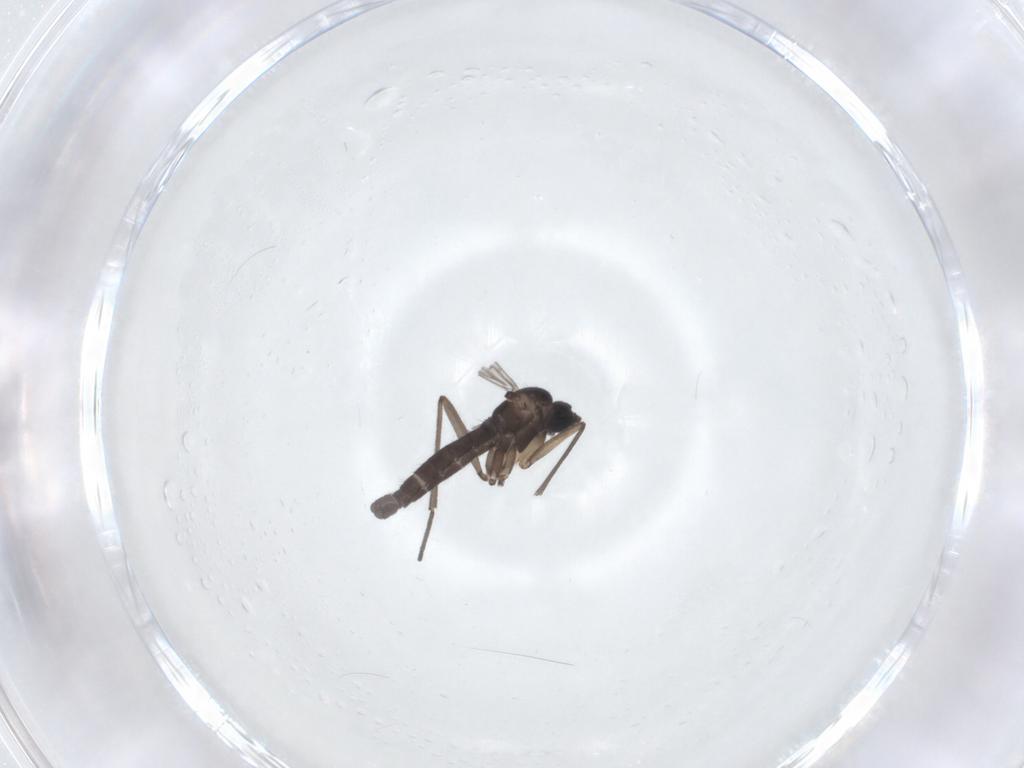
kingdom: Animalia
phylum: Arthropoda
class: Insecta
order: Diptera
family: Sciaridae
